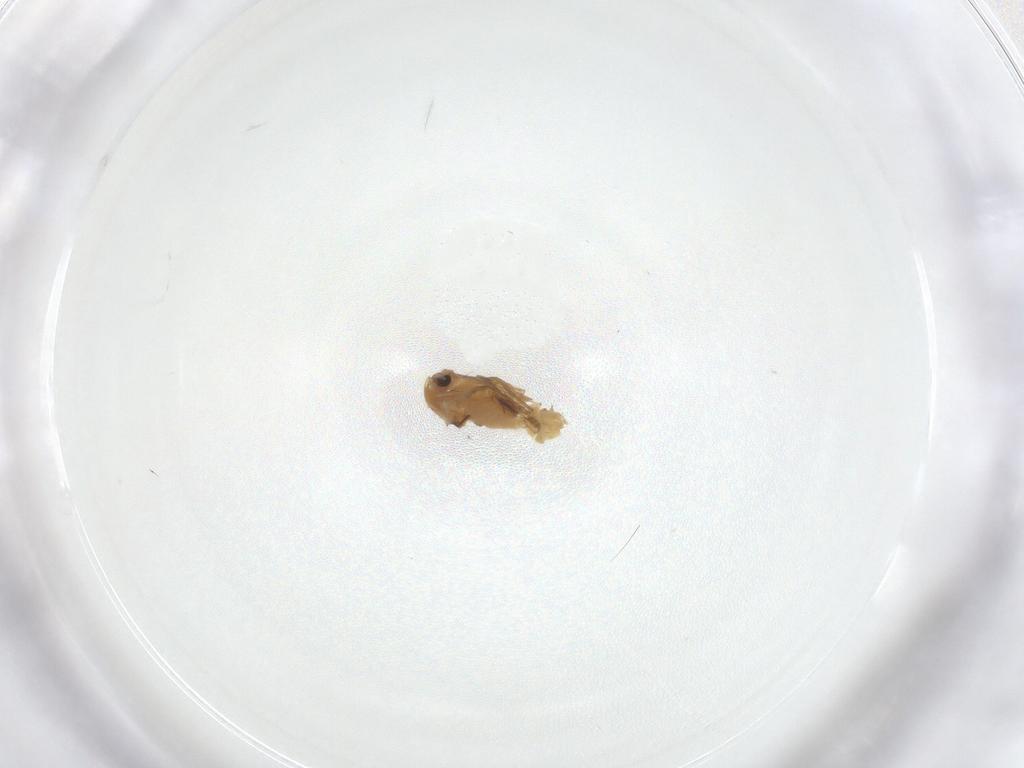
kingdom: Animalia
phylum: Arthropoda
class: Insecta
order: Diptera
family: Chironomidae
